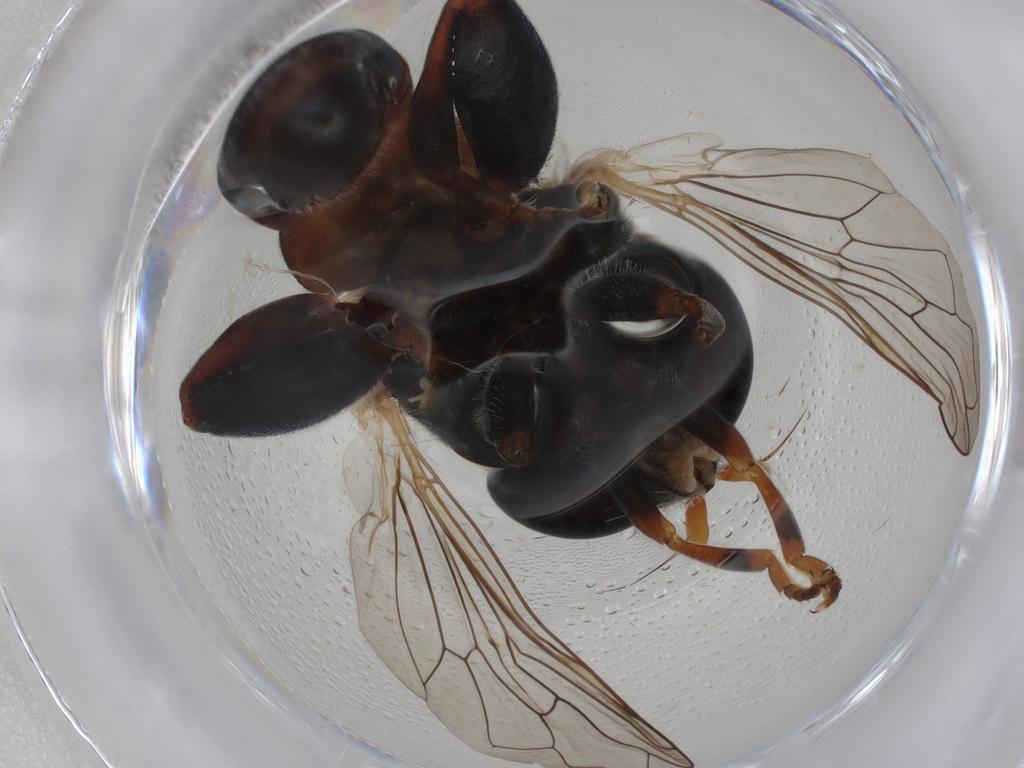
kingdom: Animalia
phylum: Arthropoda
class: Insecta
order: Diptera
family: Syrphidae
